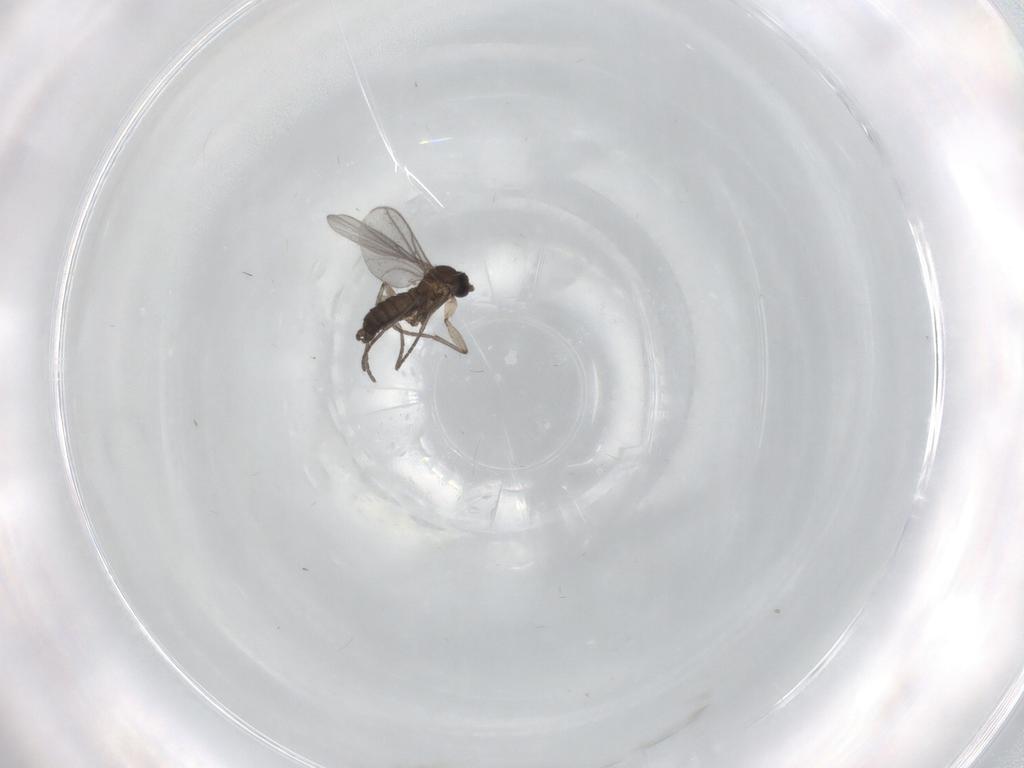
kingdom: Animalia
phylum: Arthropoda
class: Insecta
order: Diptera
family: Stratiomyidae
